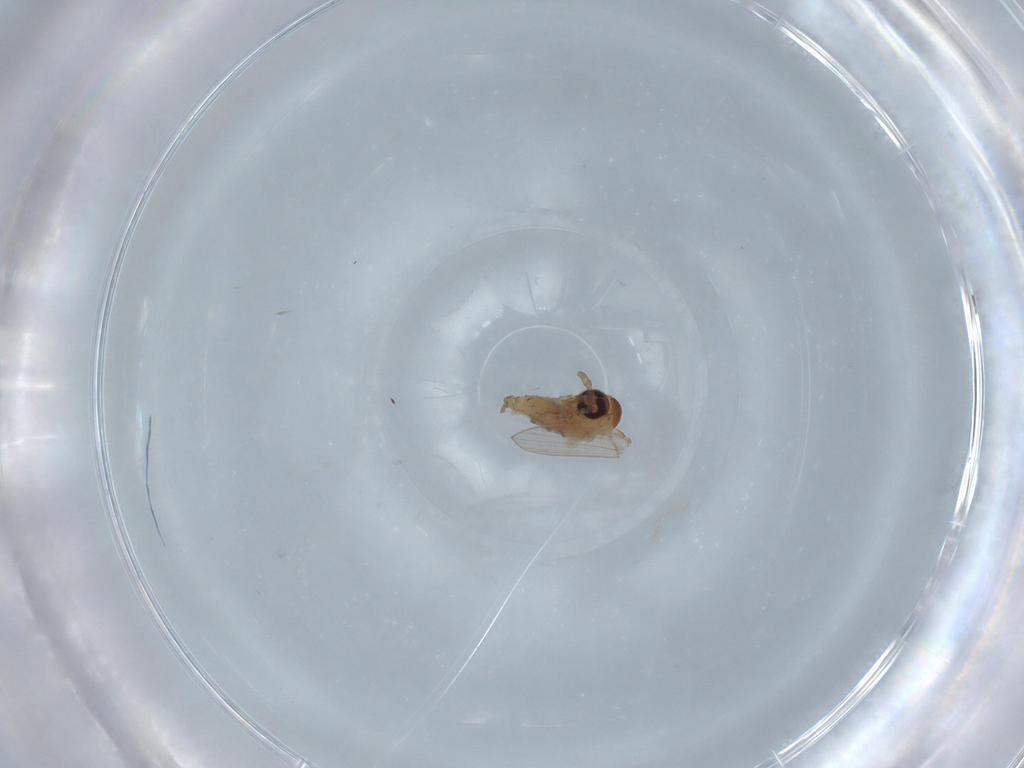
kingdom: Animalia
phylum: Arthropoda
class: Insecta
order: Diptera
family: Psychodidae
